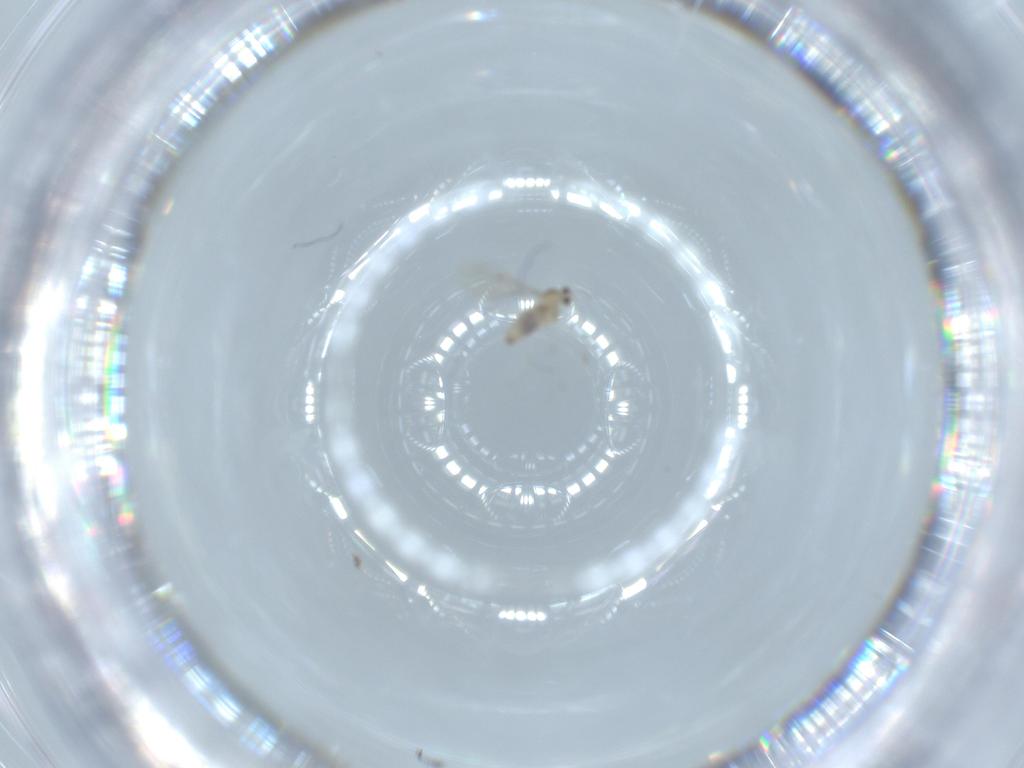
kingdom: Animalia
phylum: Arthropoda
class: Insecta
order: Diptera
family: Cecidomyiidae
